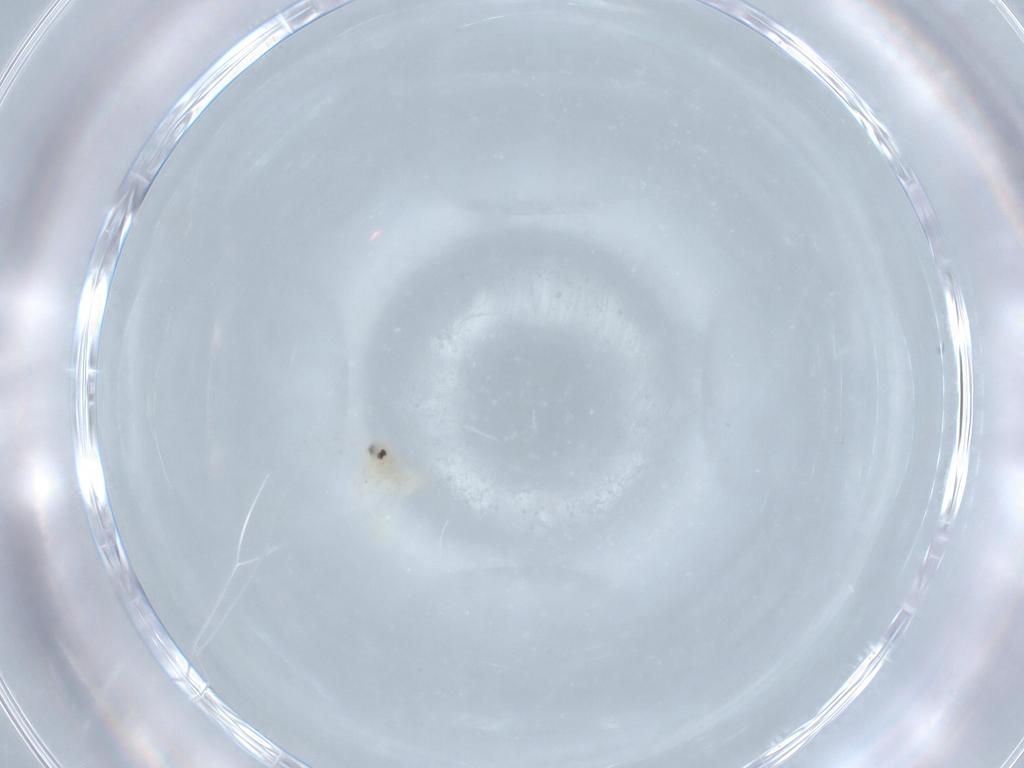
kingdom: Animalia
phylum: Arthropoda
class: Insecta
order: Hemiptera
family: Aleyrodidae
